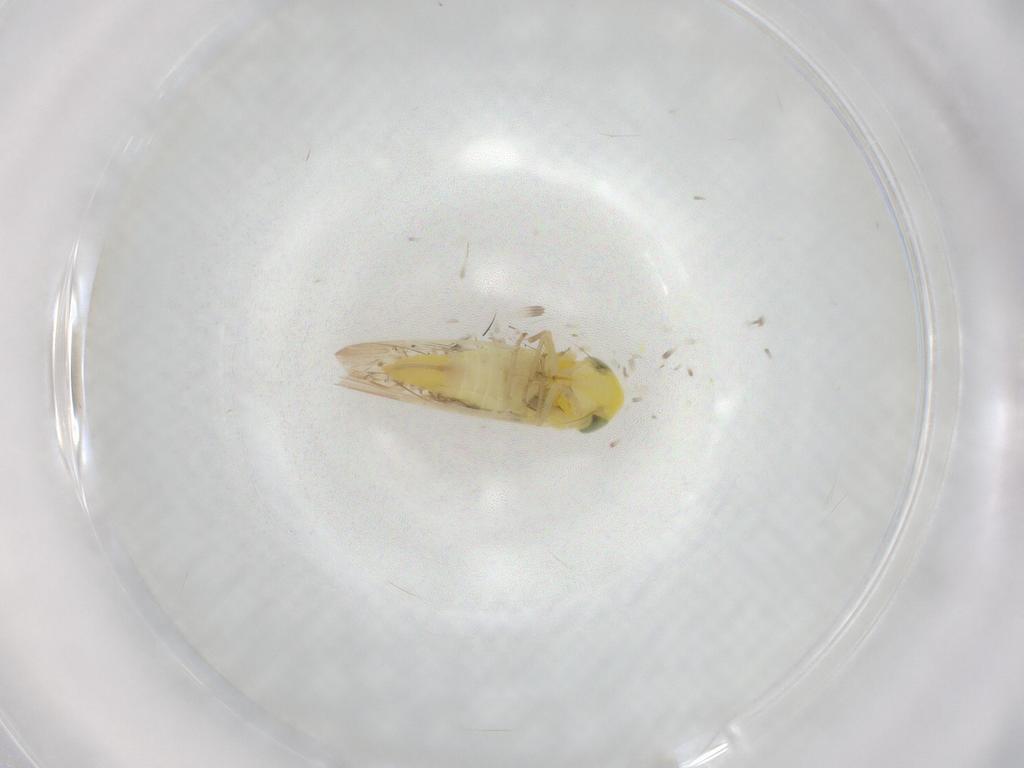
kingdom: Animalia
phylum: Arthropoda
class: Insecta
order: Hemiptera
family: Cicadellidae
